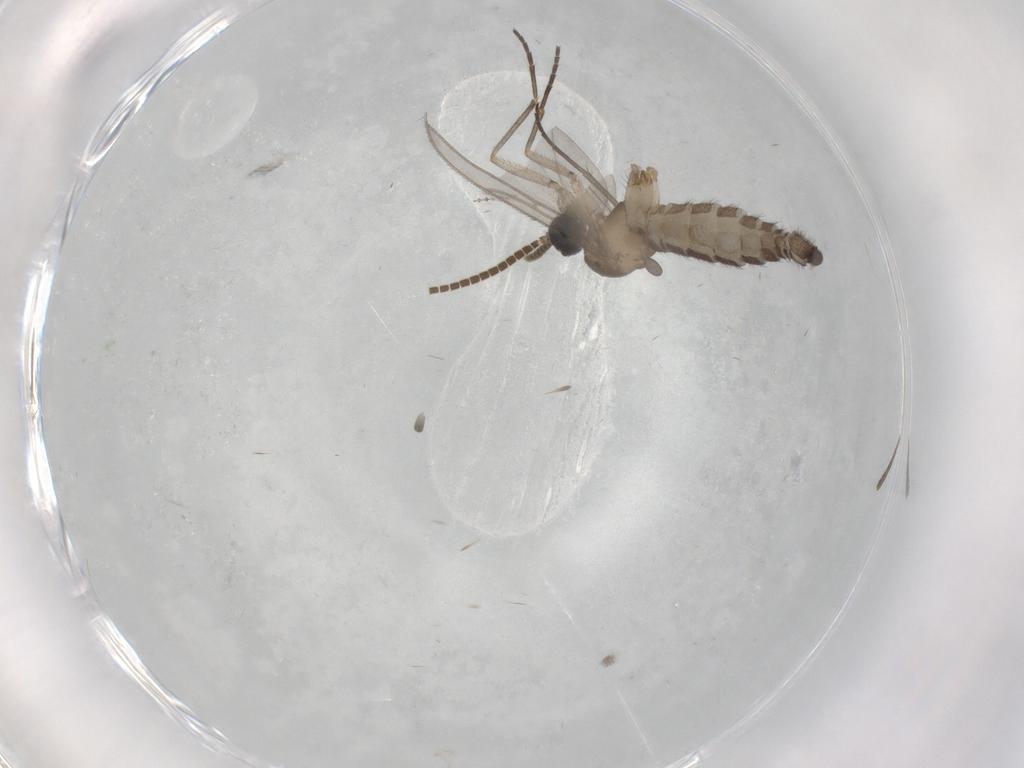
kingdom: Animalia
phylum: Arthropoda
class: Insecta
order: Diptera
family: Cecidomyiidae
